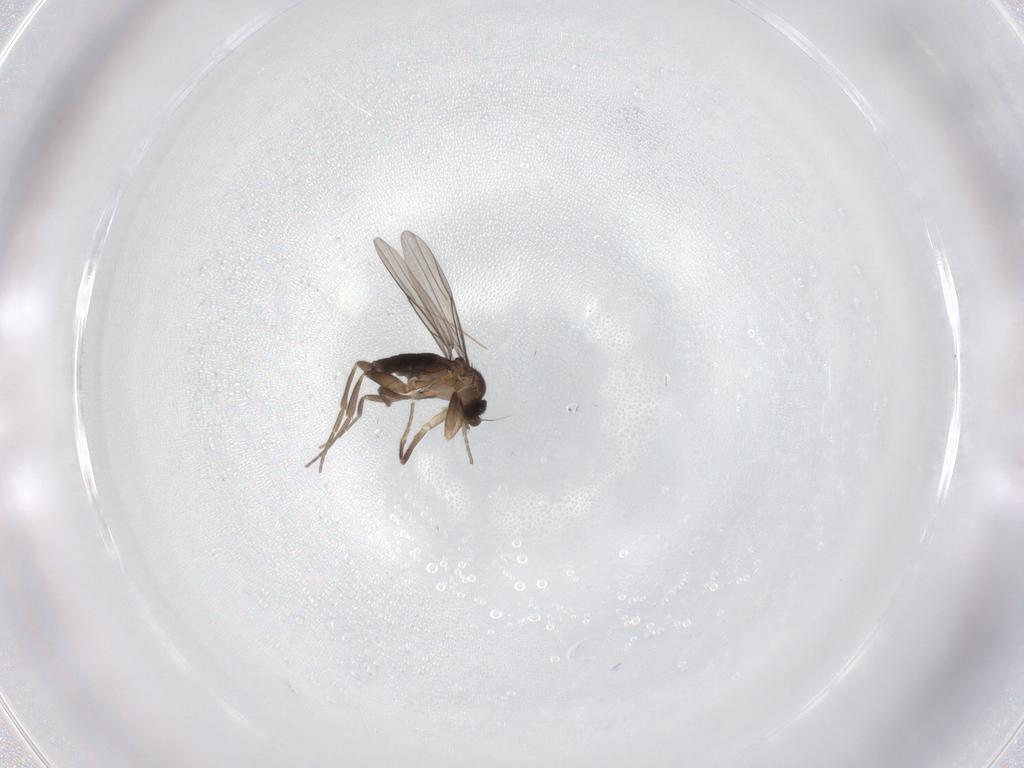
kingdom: Animalia
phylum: Arthropoda
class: Insecta
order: Diptera
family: Phoridae
